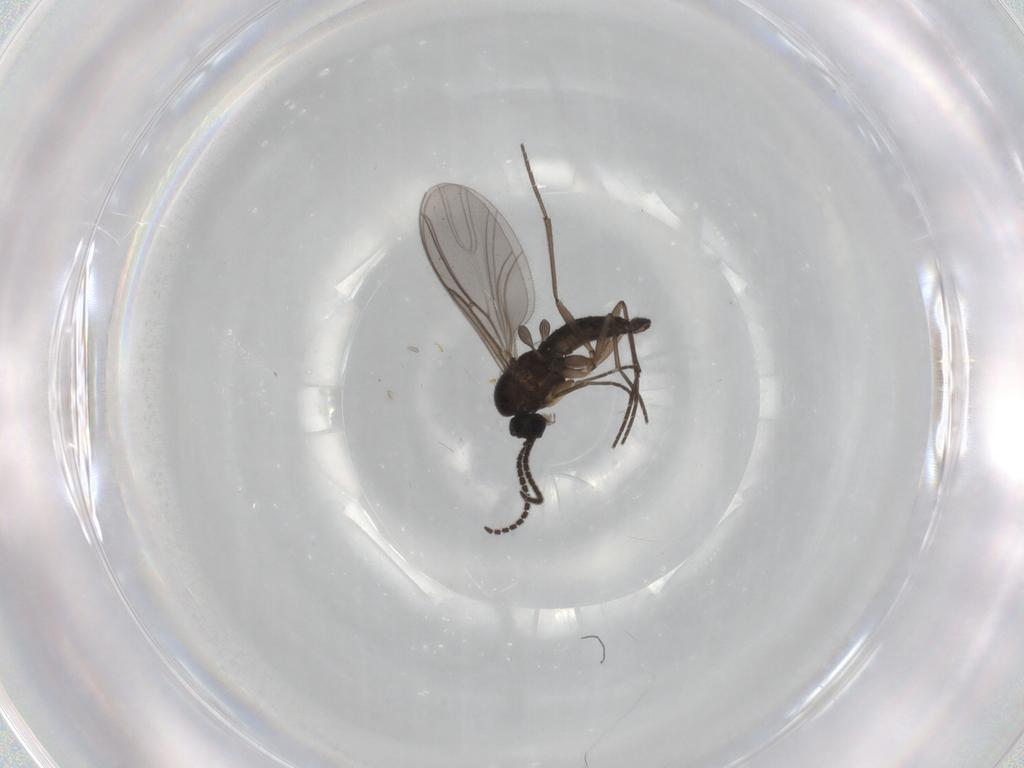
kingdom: Animalia
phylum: Arthropoda
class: Insecta
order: Diptera
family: Sciaridae
